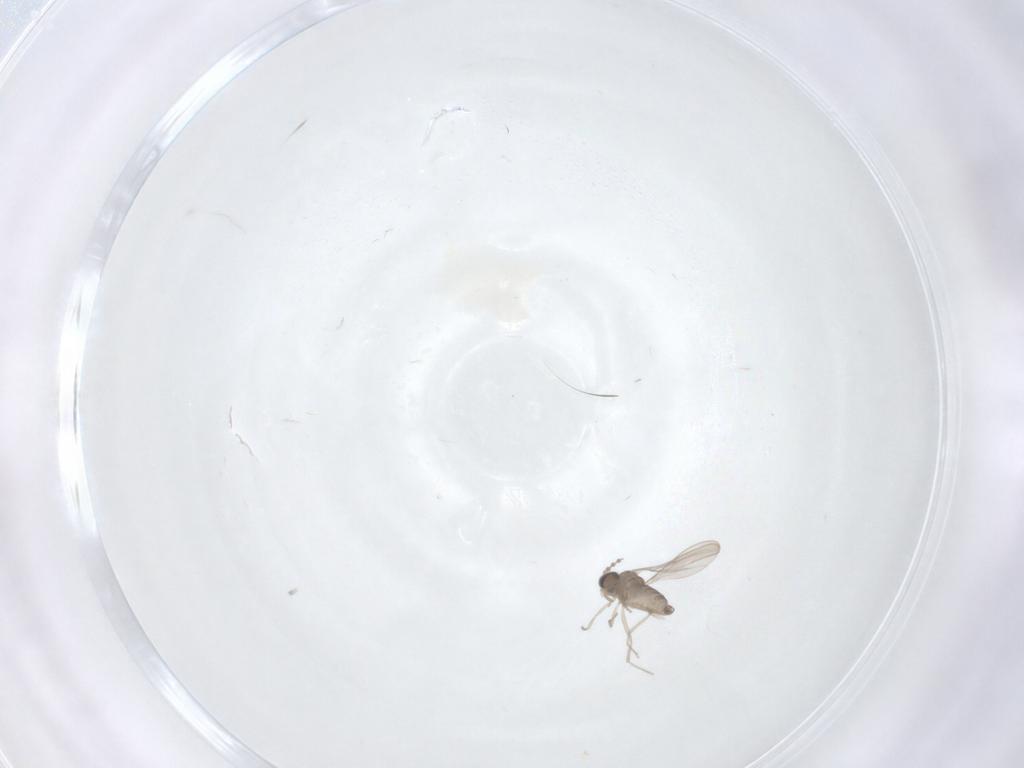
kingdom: Animalia
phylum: Arthropoda
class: Insecta
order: Diptera
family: Cecidomyiidae
